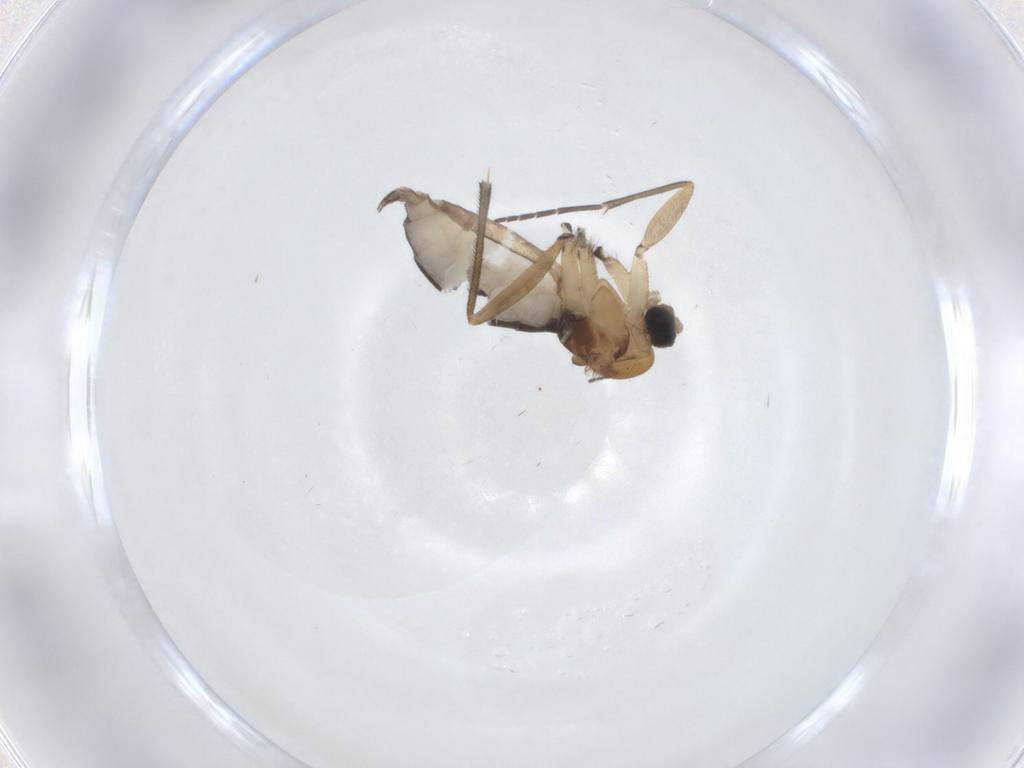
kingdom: Animalia
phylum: Arthropoda
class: Insecta
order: Diptera
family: Sciaridae
